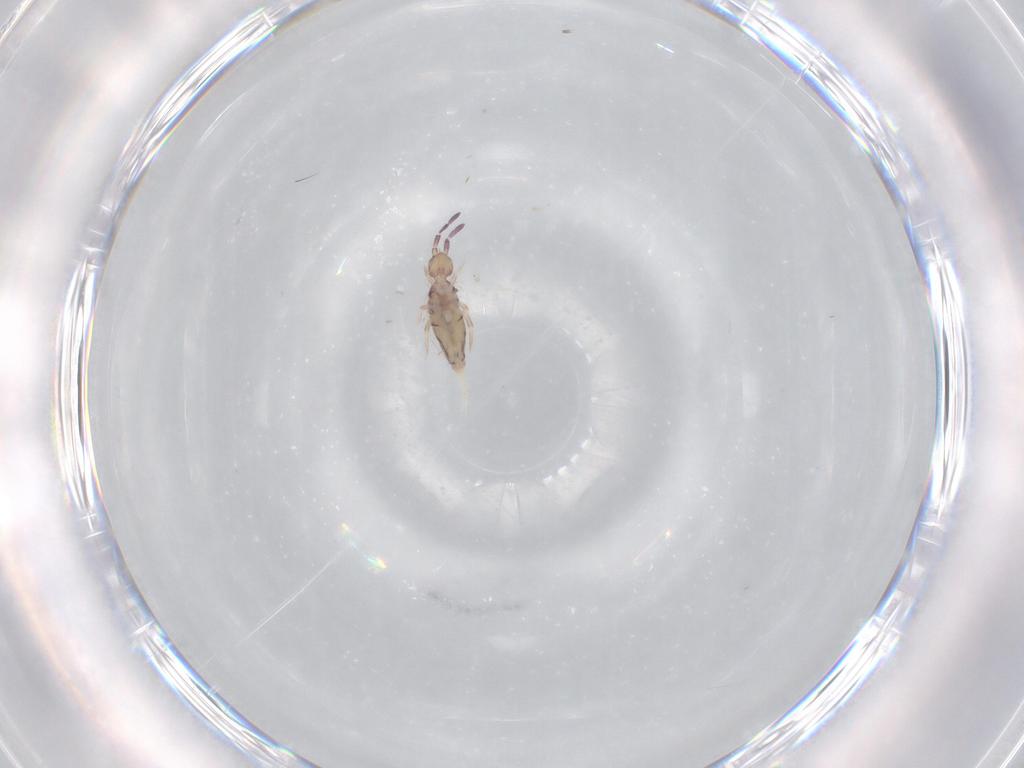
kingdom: Animalia
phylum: Arthropoda
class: Collembola
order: Entomobryomorpha
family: Entomobryidae
